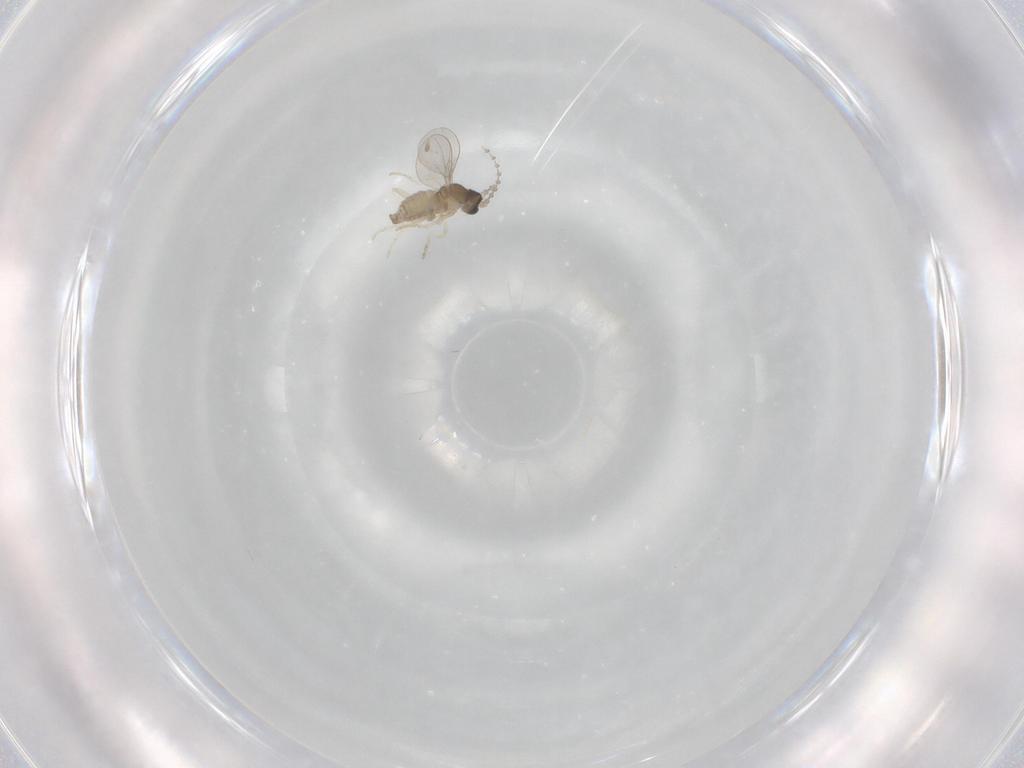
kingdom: Animalia
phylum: Arthropoda
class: Insecta
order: Diptera
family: Cecidomyiidae
